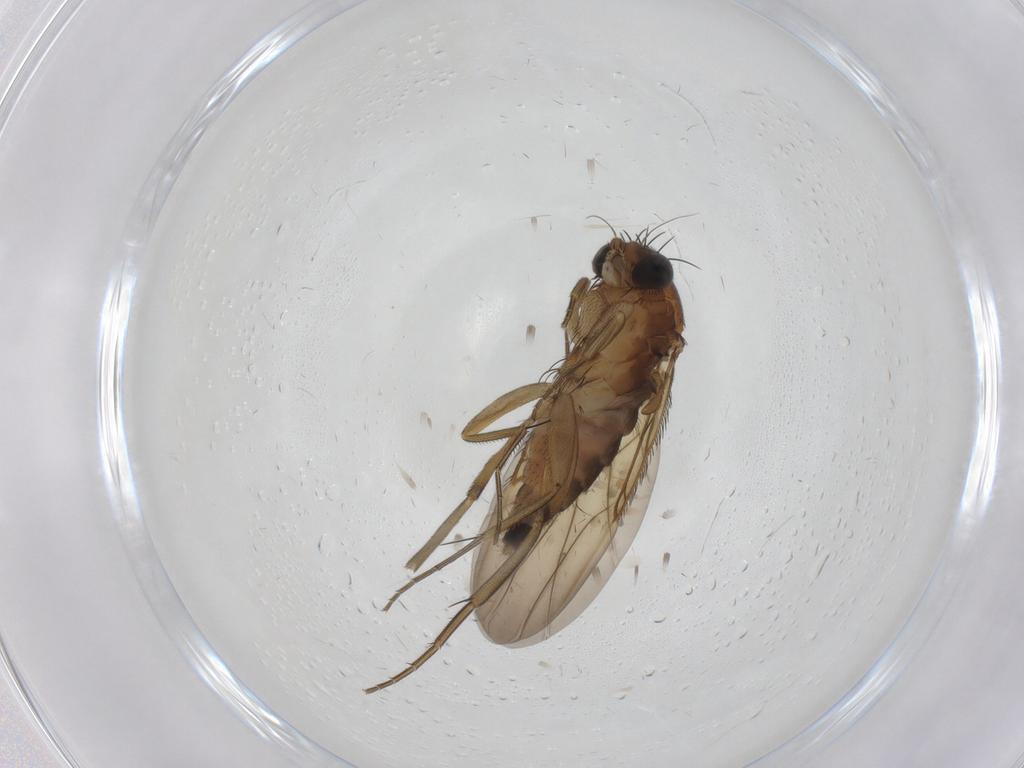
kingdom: Animalia
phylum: Arthropoda
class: Insecta
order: Diptera
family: Phoridae
